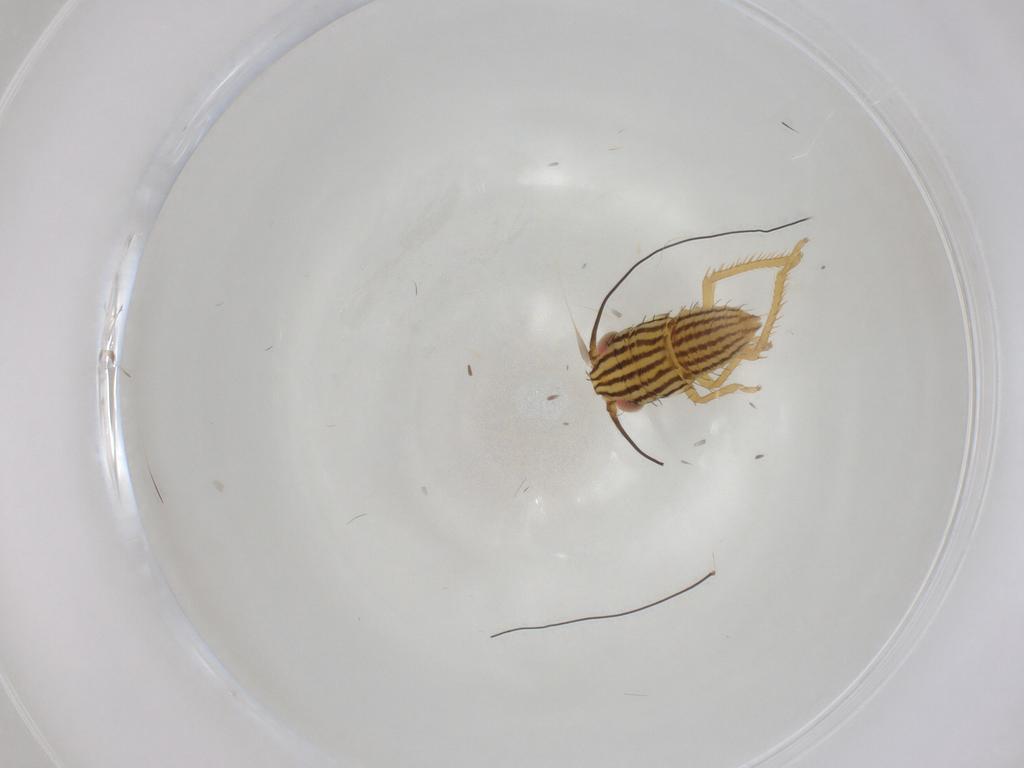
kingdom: Animalia
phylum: Arthropoda
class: Insecta
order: Hemiptera
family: Cicadellidae
